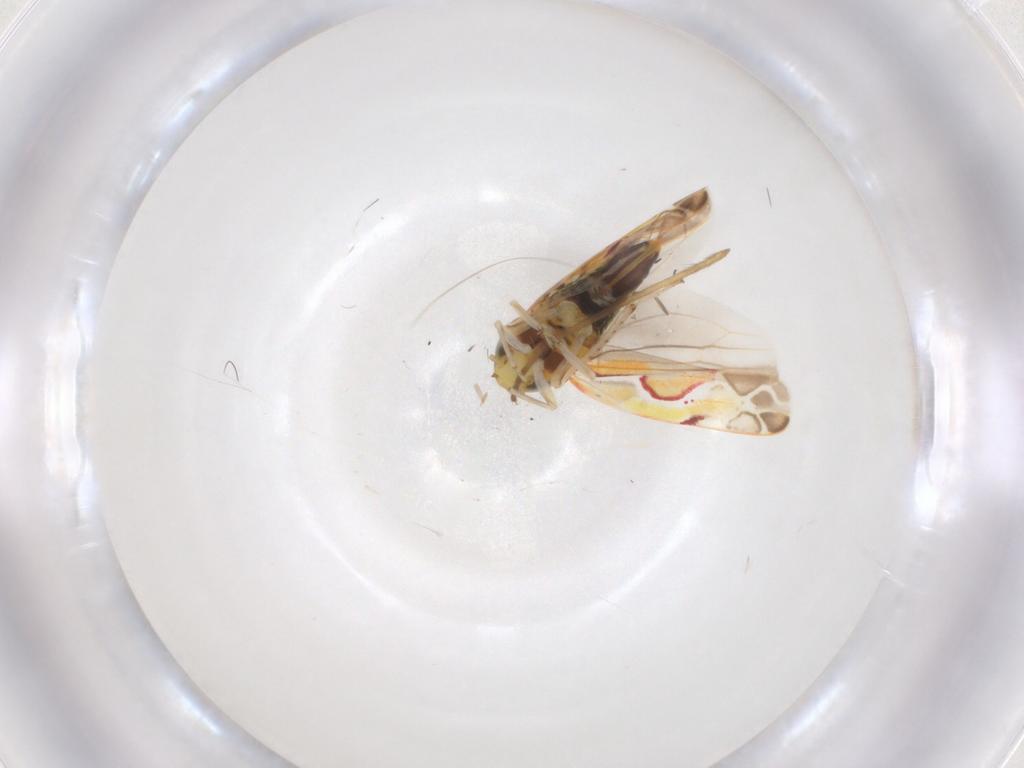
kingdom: Animalia
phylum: Arthropoda
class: Insecta
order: Hemiptera
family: Cicadellidae
